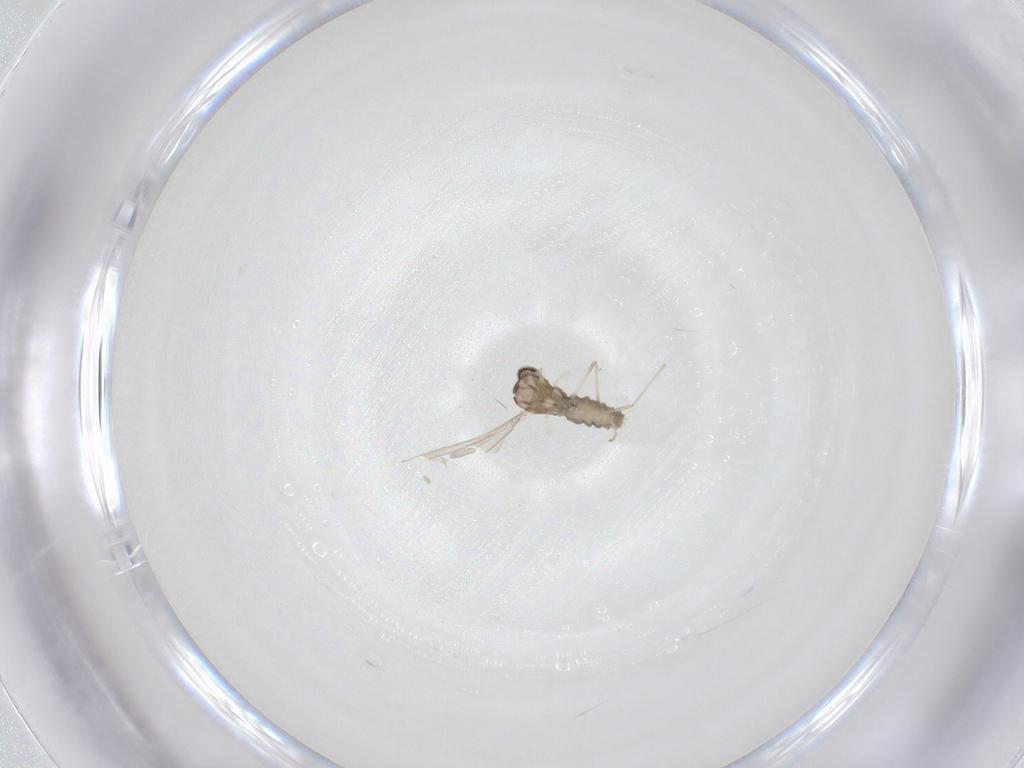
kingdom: Animalia
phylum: Arthropoda
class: Insecta
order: Diptera
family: Cecidomyiidae
